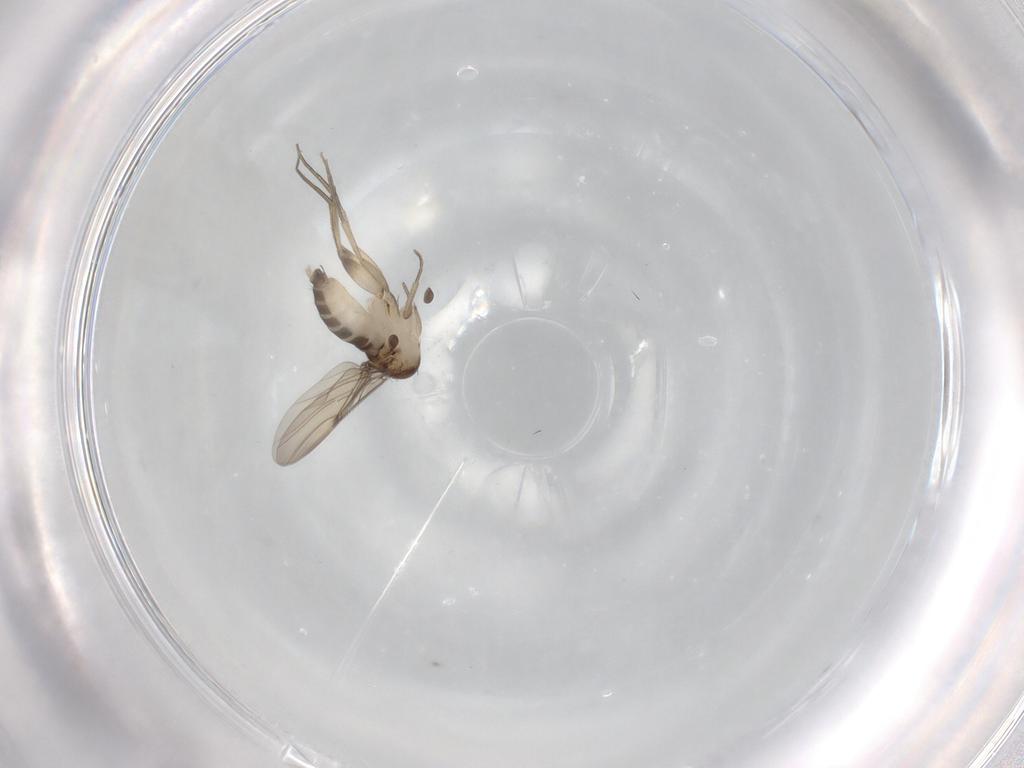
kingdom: Animalia
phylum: Arthropoda
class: Insecta
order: Diptera
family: Phoridae
